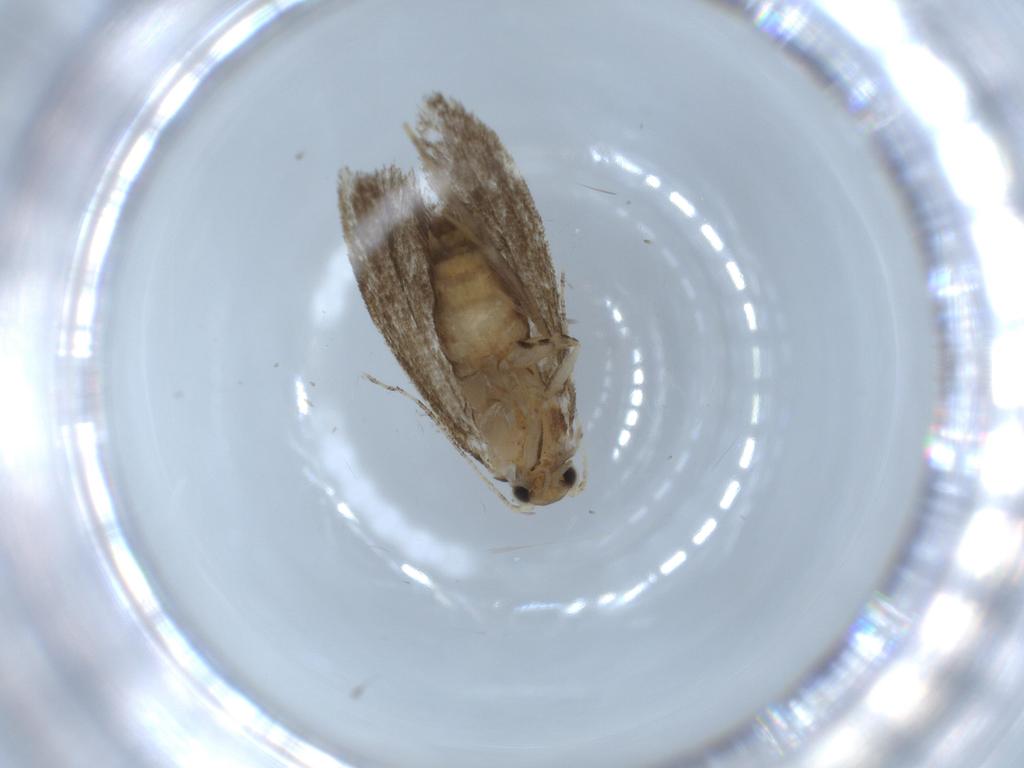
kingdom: Animalia
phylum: Arthropoda
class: Insecta
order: Lepidoptera
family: Tineidae
